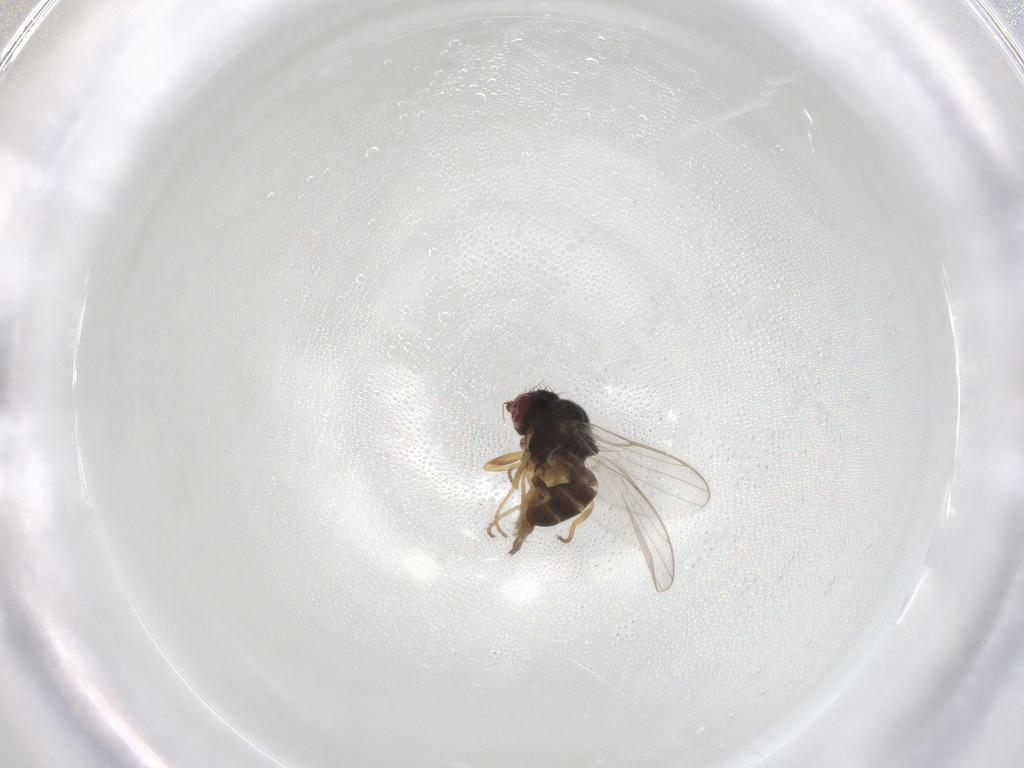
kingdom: Animalia
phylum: Arthropoda
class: Insecta
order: Diptera
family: Chloropidae
